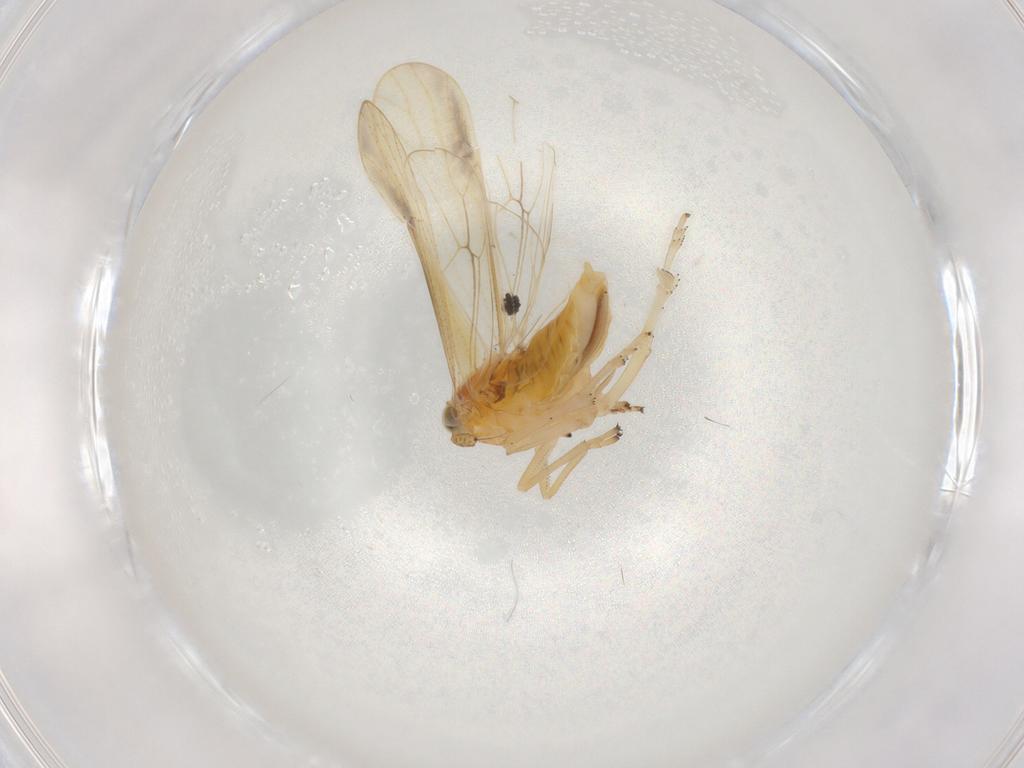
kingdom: Animalia
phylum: Arthropoda
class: Insecta
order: Hemiptera
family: Delphacidae
